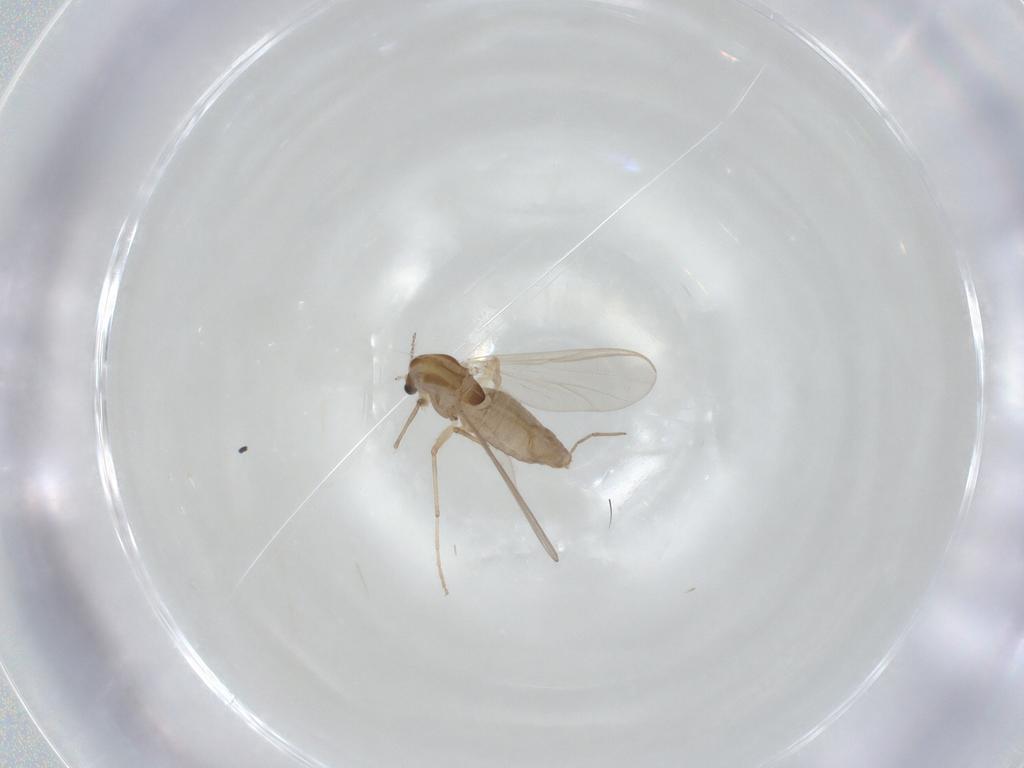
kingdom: Animalia
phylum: Arthropoda
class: Insecta
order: Diptera
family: Chironomidae
